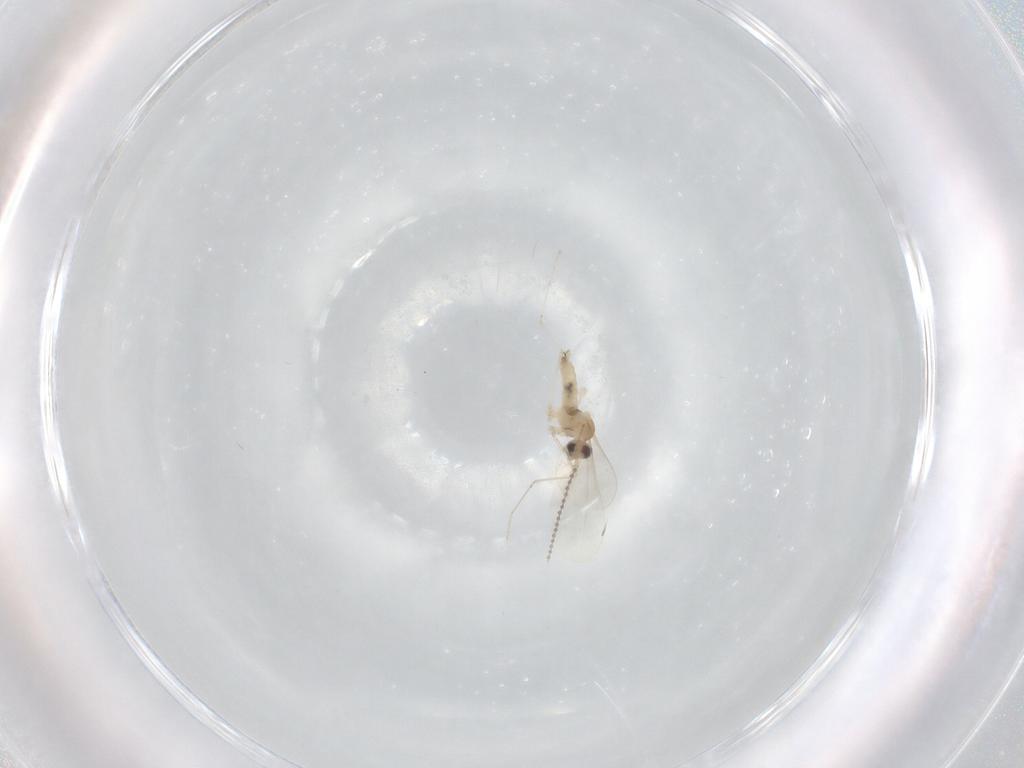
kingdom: Animalia
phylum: Arthropoda
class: Insecta
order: Diptera
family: Cecidomyiidae
